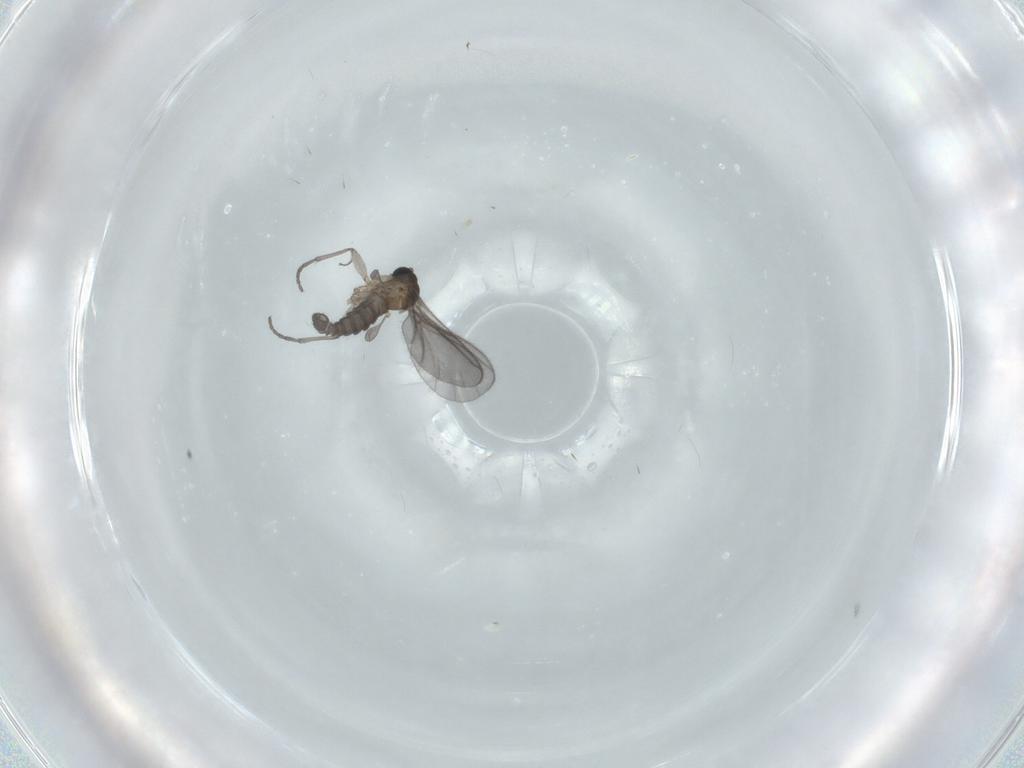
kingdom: Animalia
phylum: Arthropoda
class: Insecta
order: Diptera
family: Sciaridae
